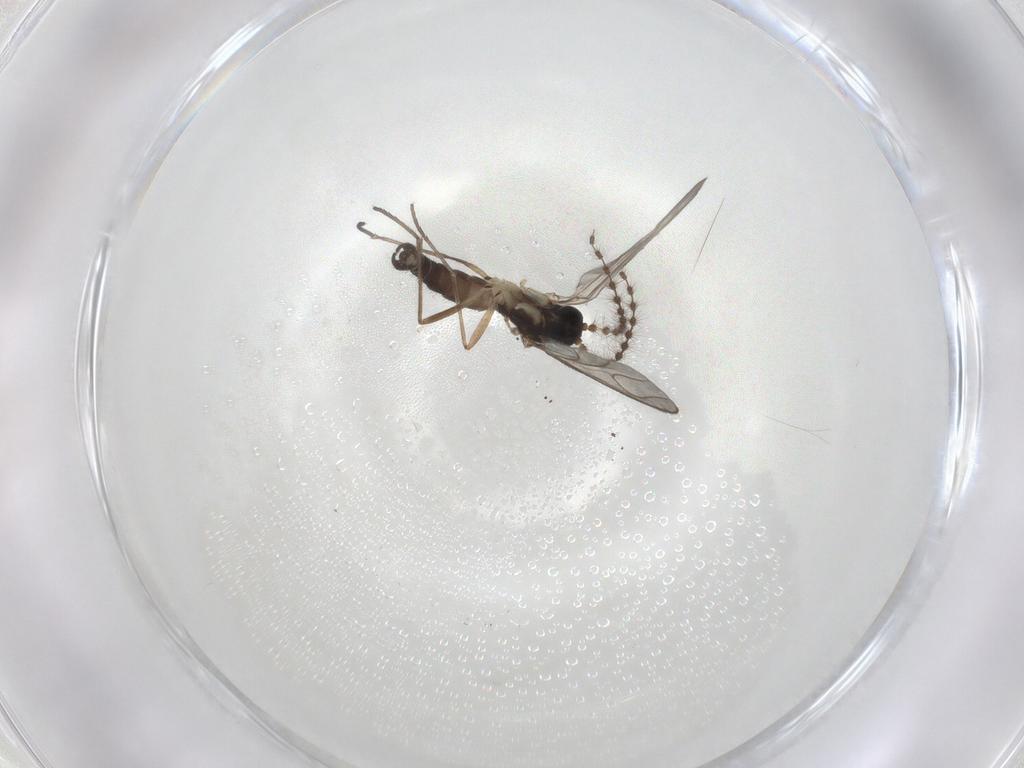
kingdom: Animalia
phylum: Arthropoda
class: Insecta
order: Diptera
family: Sciaridae
